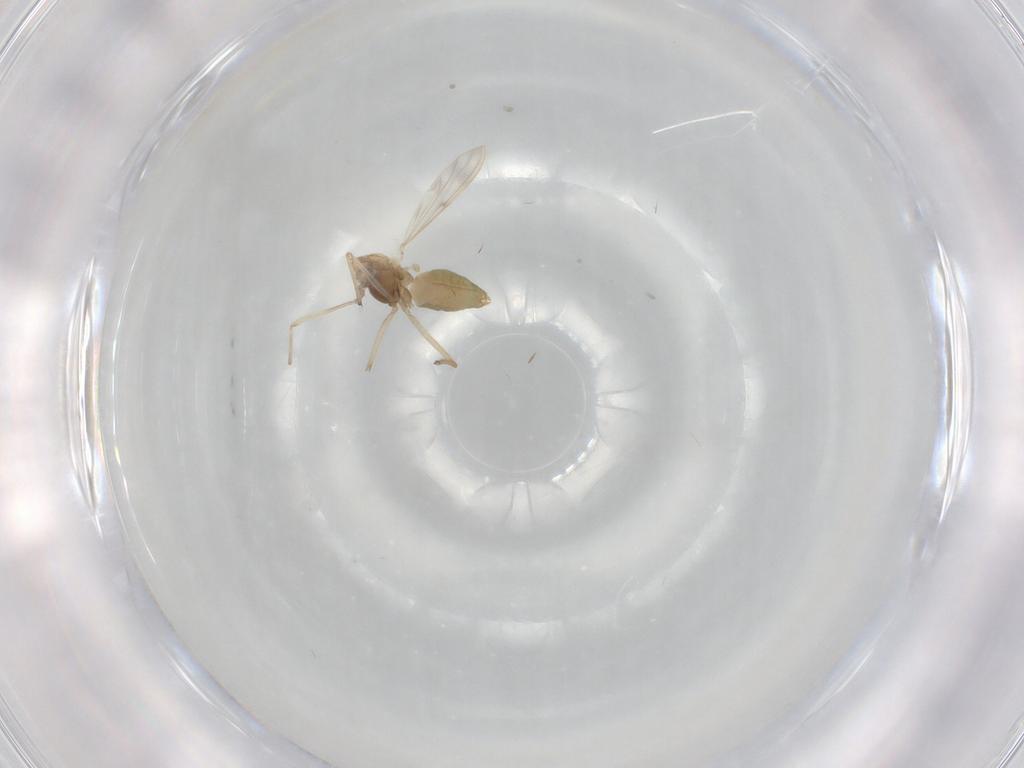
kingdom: Animalia
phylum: Arthropoda
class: Insecta
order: Diptera
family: Chironomidae
